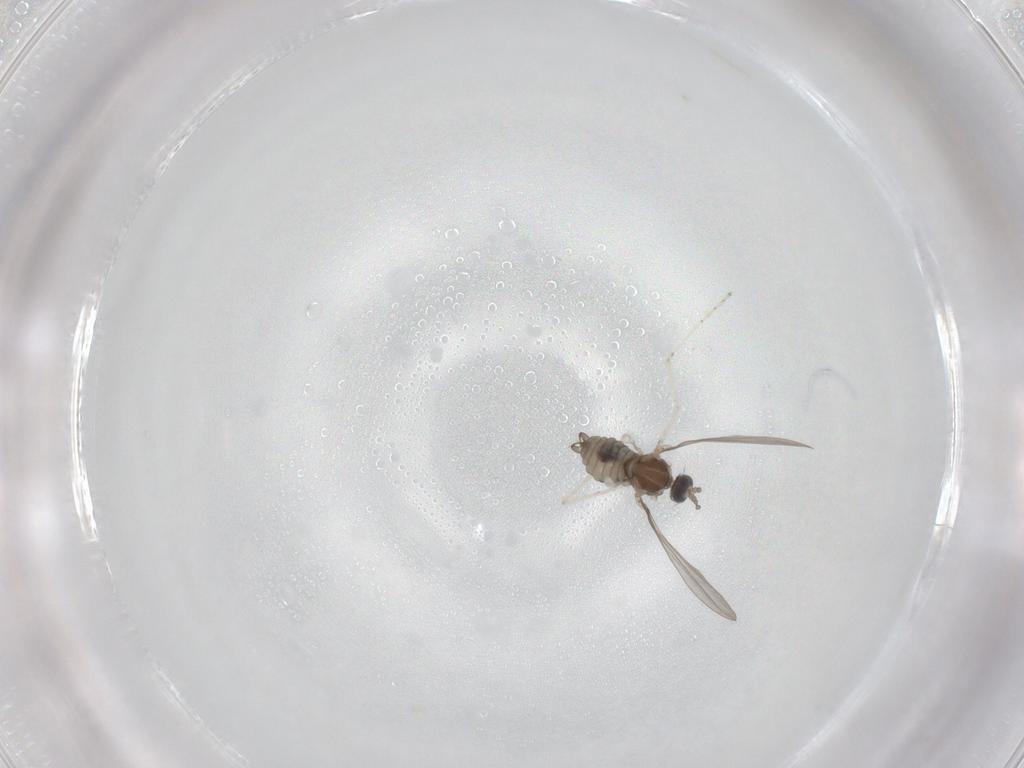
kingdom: Animalia
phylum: Arthropoda
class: Insecta
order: Diptera
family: Cecidomyiidae
